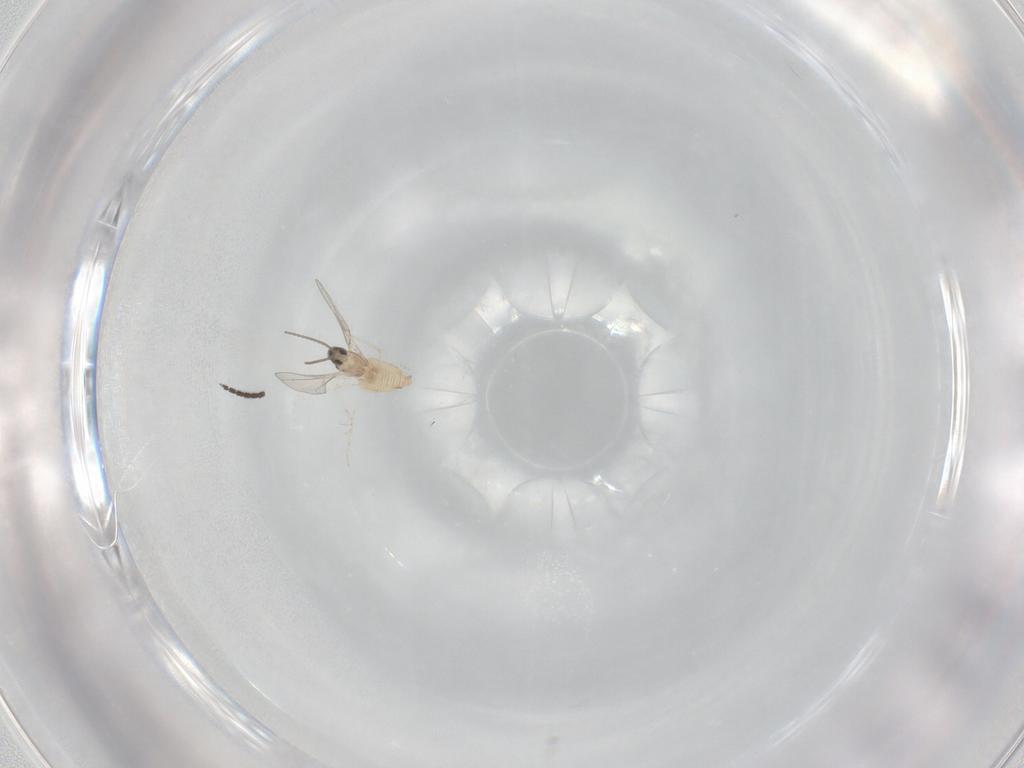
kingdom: Animalia
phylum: Arthropoda
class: Insecta
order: Diptera
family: Cecidomyiidae
